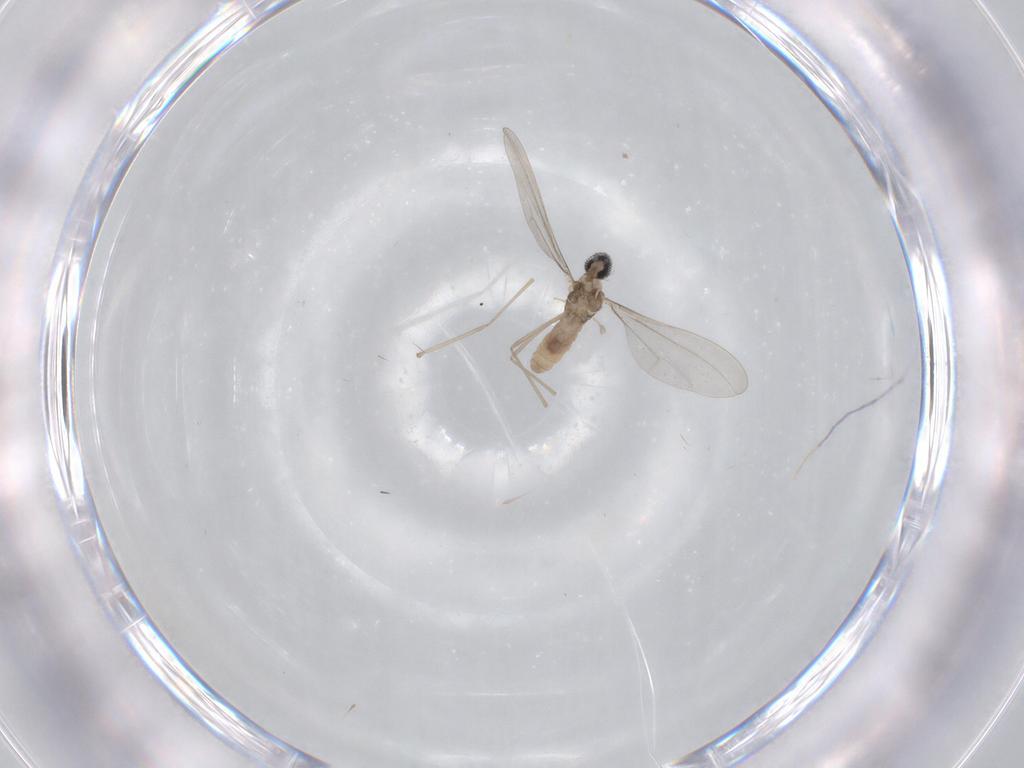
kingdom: Animalia
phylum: Arthropoda
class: Insecta
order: Diptera
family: Cecidomyiidae
